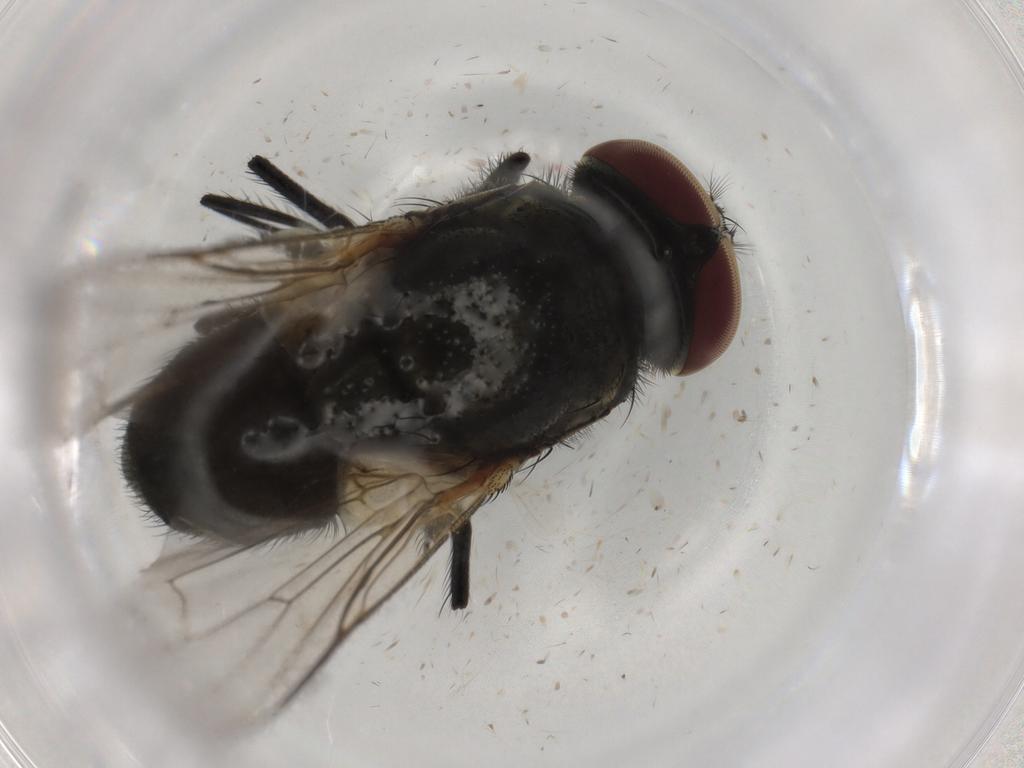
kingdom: Animalia
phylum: Arthropoda
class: Insecta
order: Diptera
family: Muscidae
